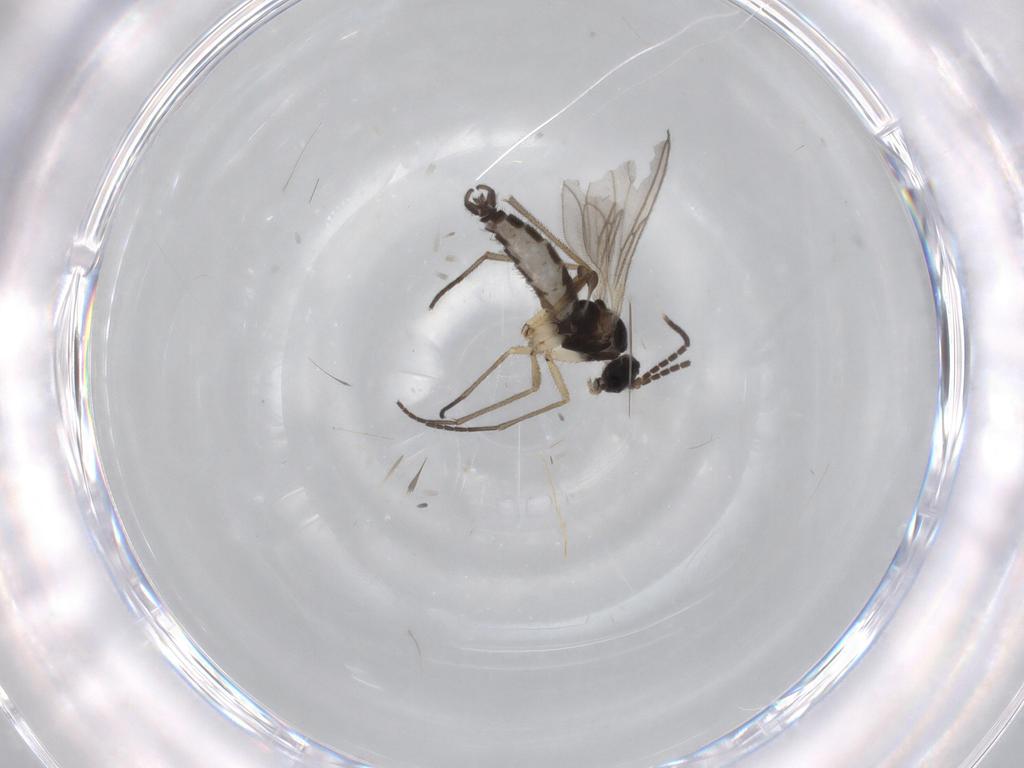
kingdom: Animalia
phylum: Arthropoda
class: Insecta
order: Diptera
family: Sciaridae
